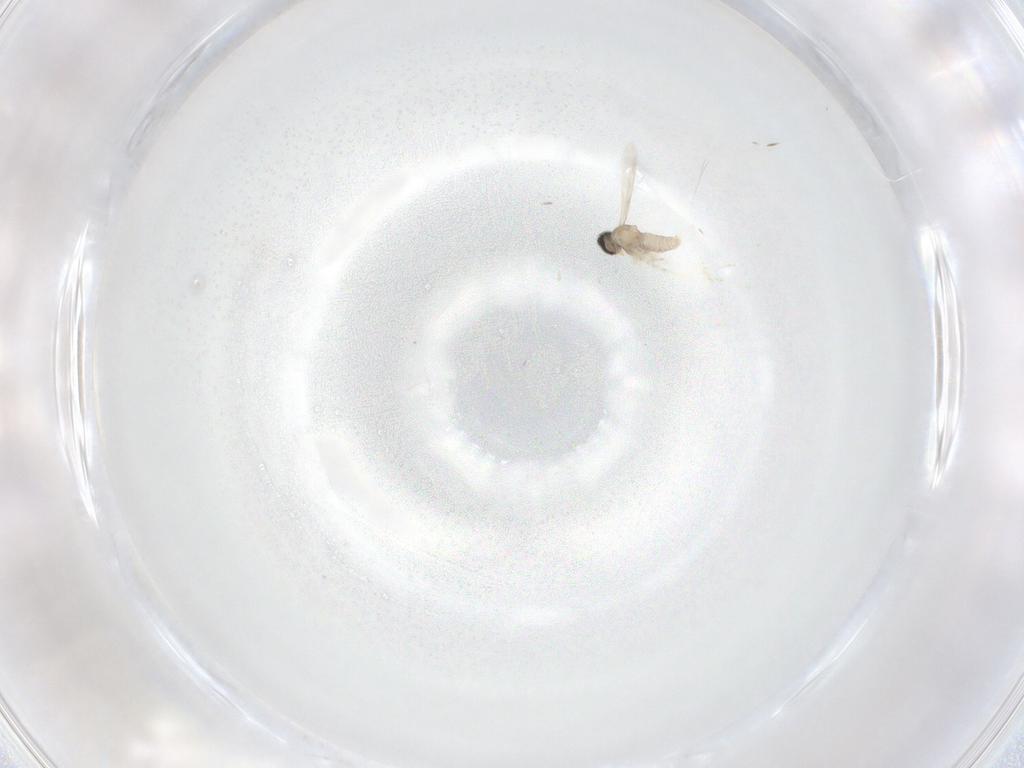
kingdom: Animalia
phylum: Arthropoda
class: Insecta
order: Diptera
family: Cecidomyiidae
